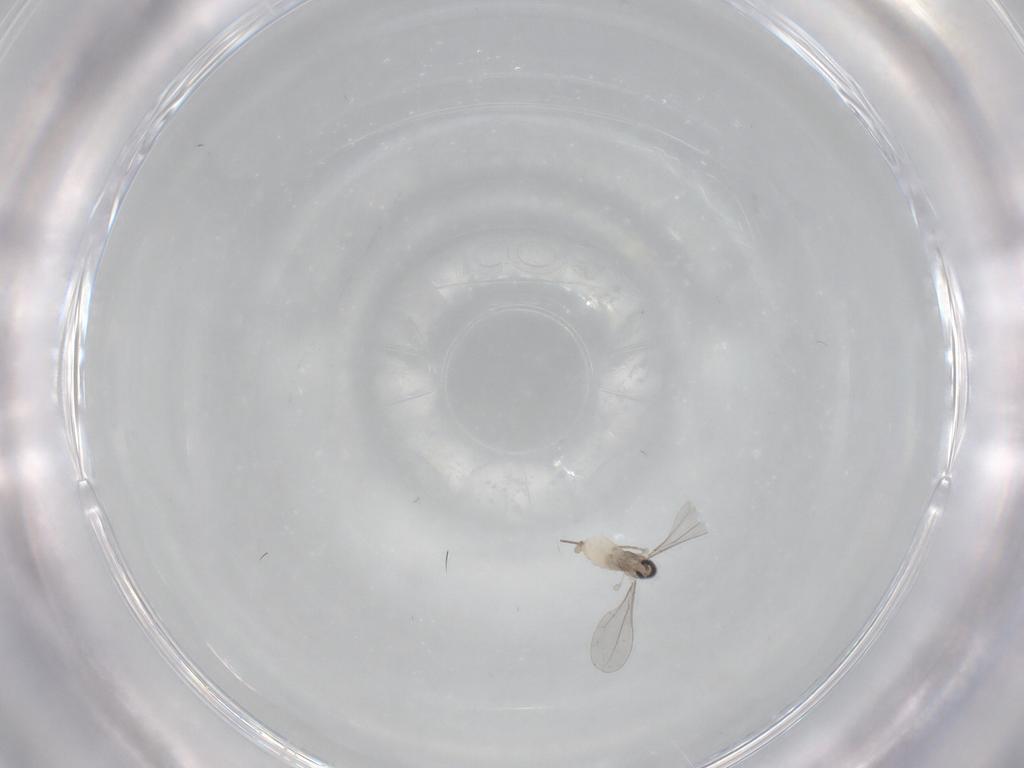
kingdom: Animalia
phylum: Arthropoda
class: Insecta
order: Diptera
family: Chironomidae
